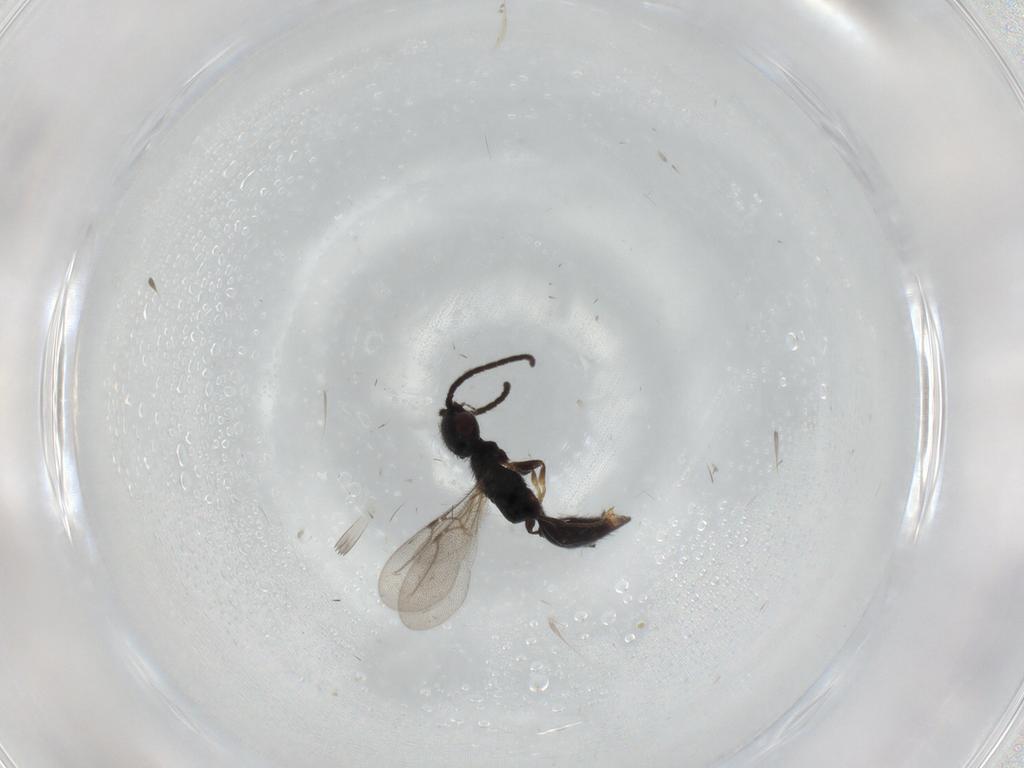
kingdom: Animalia
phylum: Arthropoda
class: Insecta
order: Hymenoptera
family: Bethylidae
